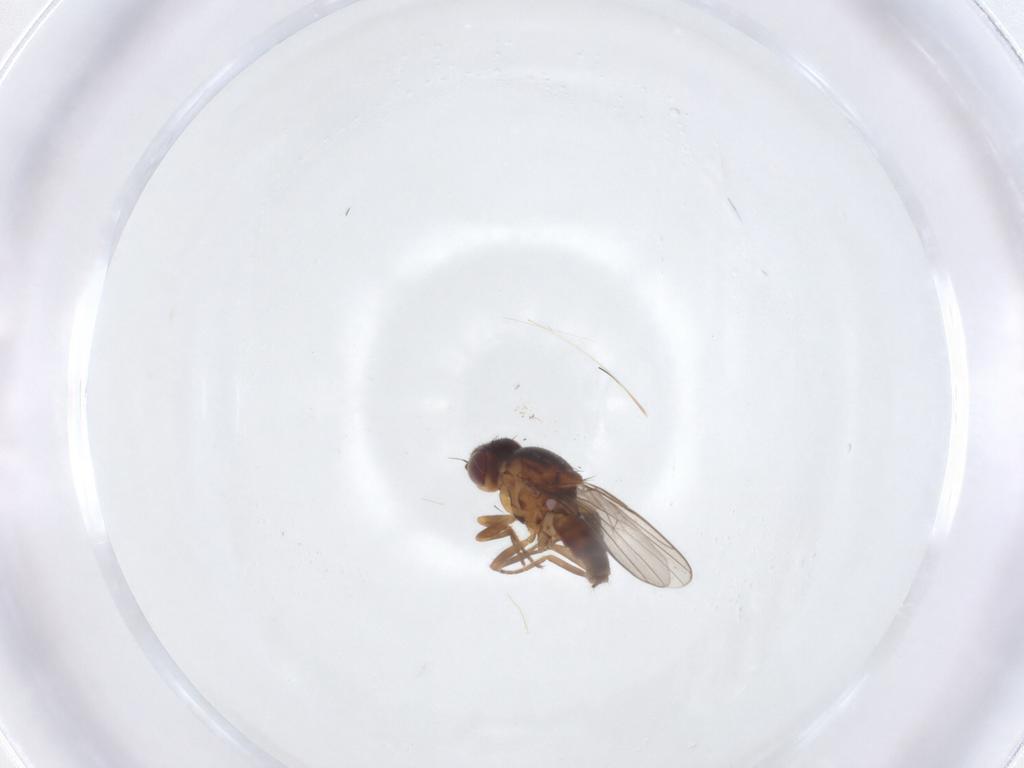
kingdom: Animalia
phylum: Arthropoda
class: Insecta
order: Diptera
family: Chloropidae
